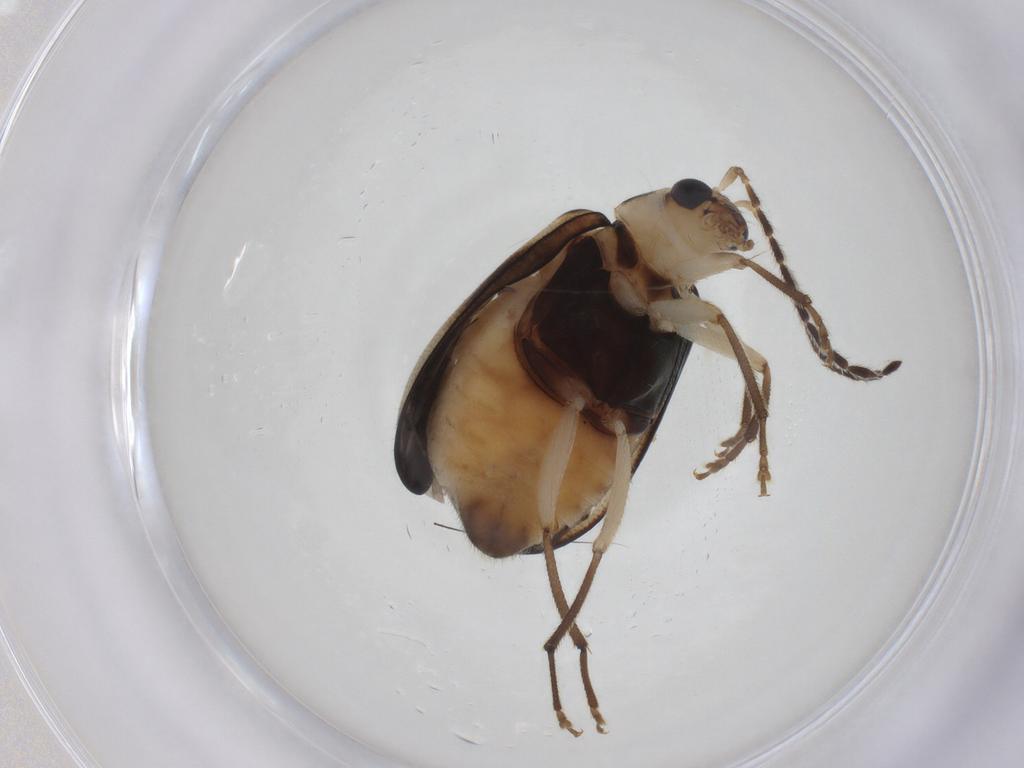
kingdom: Animalia
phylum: Arthropoda
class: Insecta
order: Coleoptera
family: Chrysomelidae
